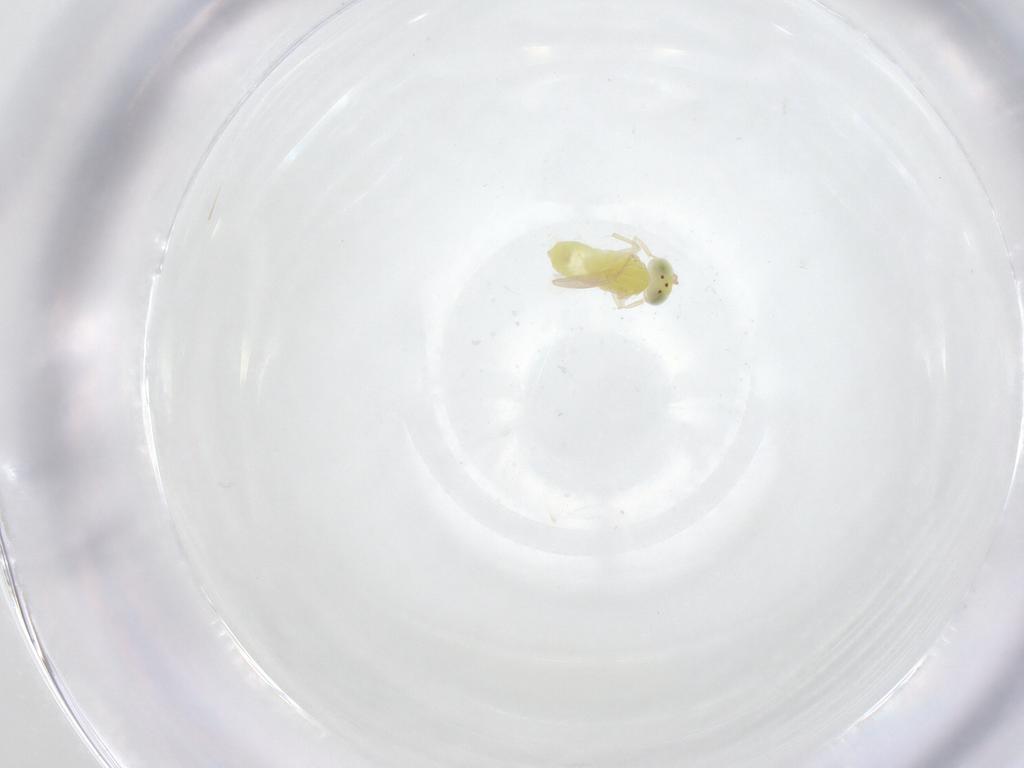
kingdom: Animalia
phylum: Arthropoda
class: Insecta
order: Hymenoptera
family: Aphelinidae
